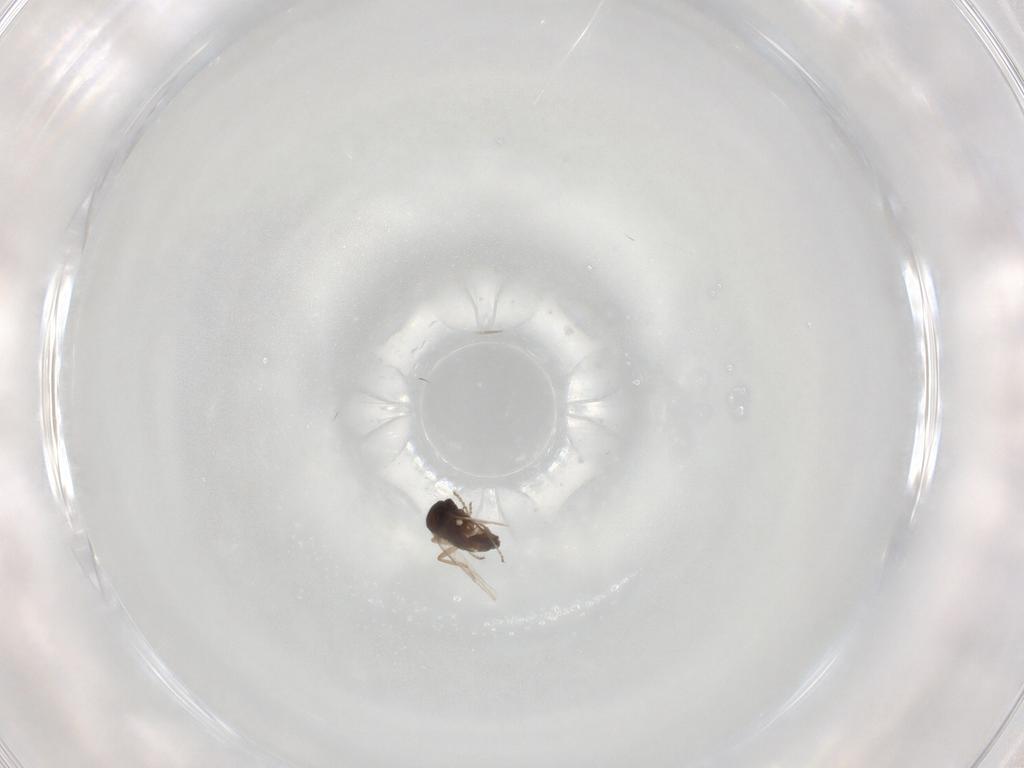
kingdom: Animalia
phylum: Arthropoda
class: Insecta
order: Diptera
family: Ceratopogonidae
